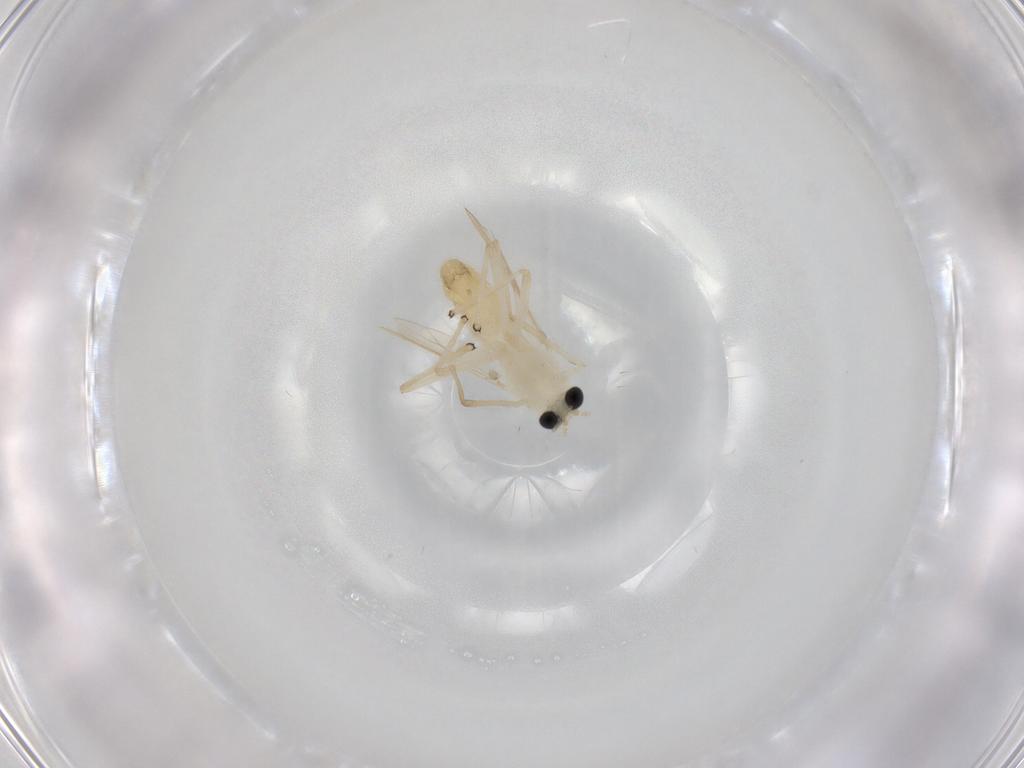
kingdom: Animalia
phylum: Arthropoda
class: Insecta
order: Diptera
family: Chironomidae
